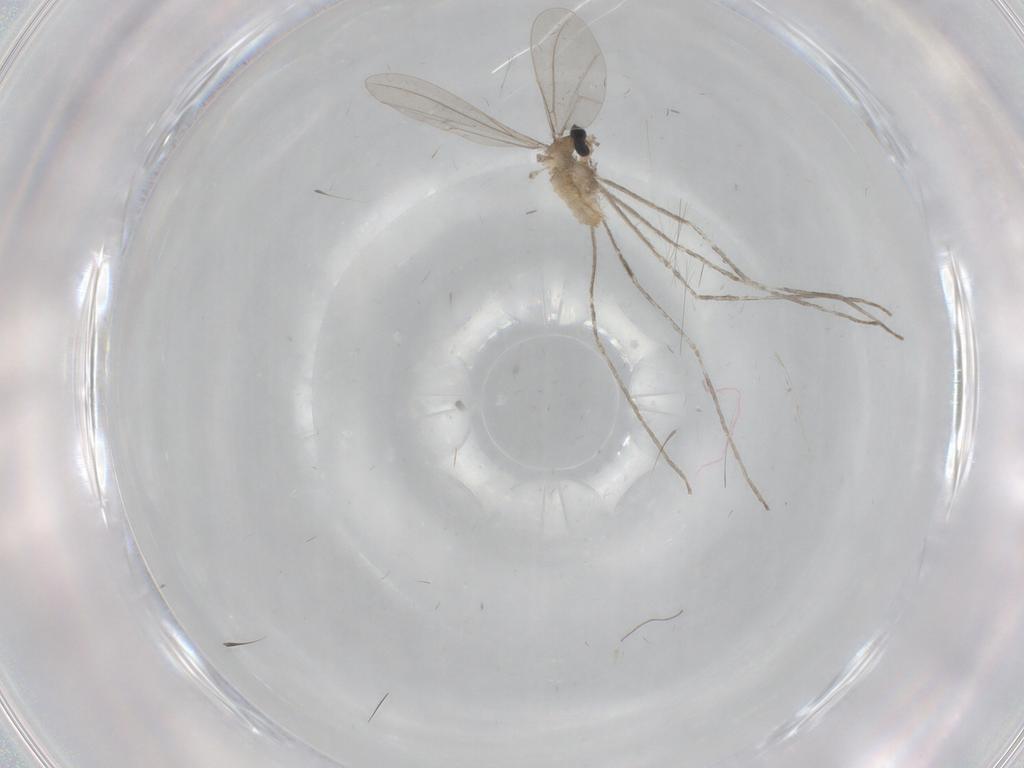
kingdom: Animalia
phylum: Arthropoda
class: Insecta
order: Diptera
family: Cecidomyiidae
